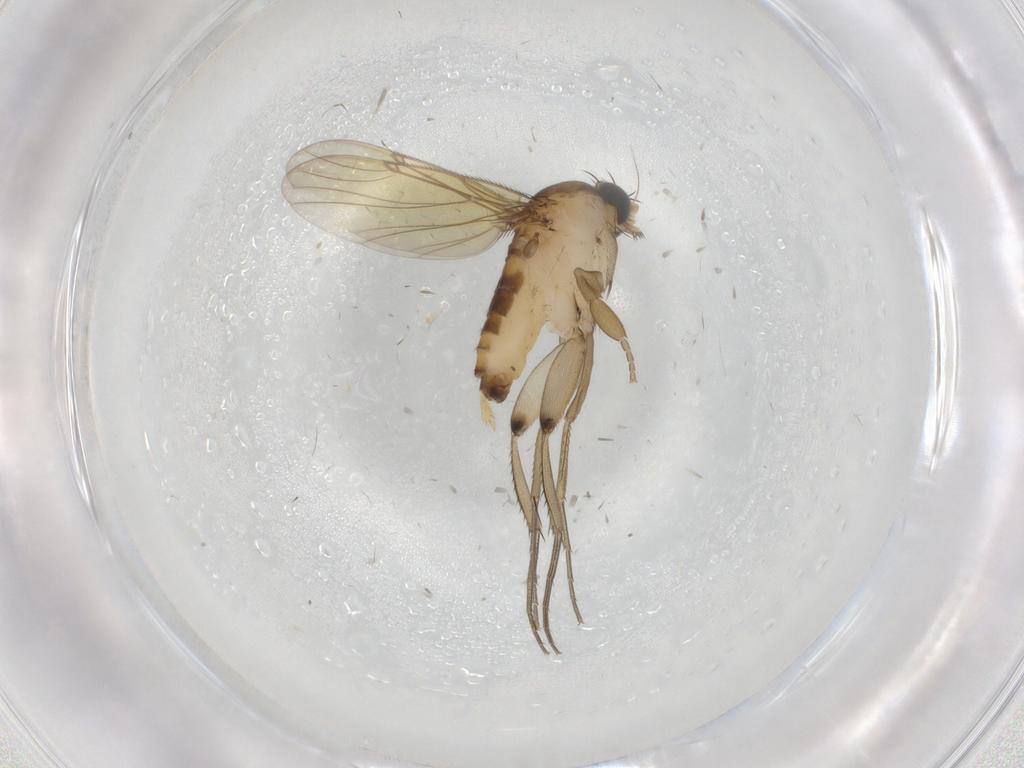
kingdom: Animalia
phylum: Arthropoda
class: Insecta
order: Diptera
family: Phoridae
